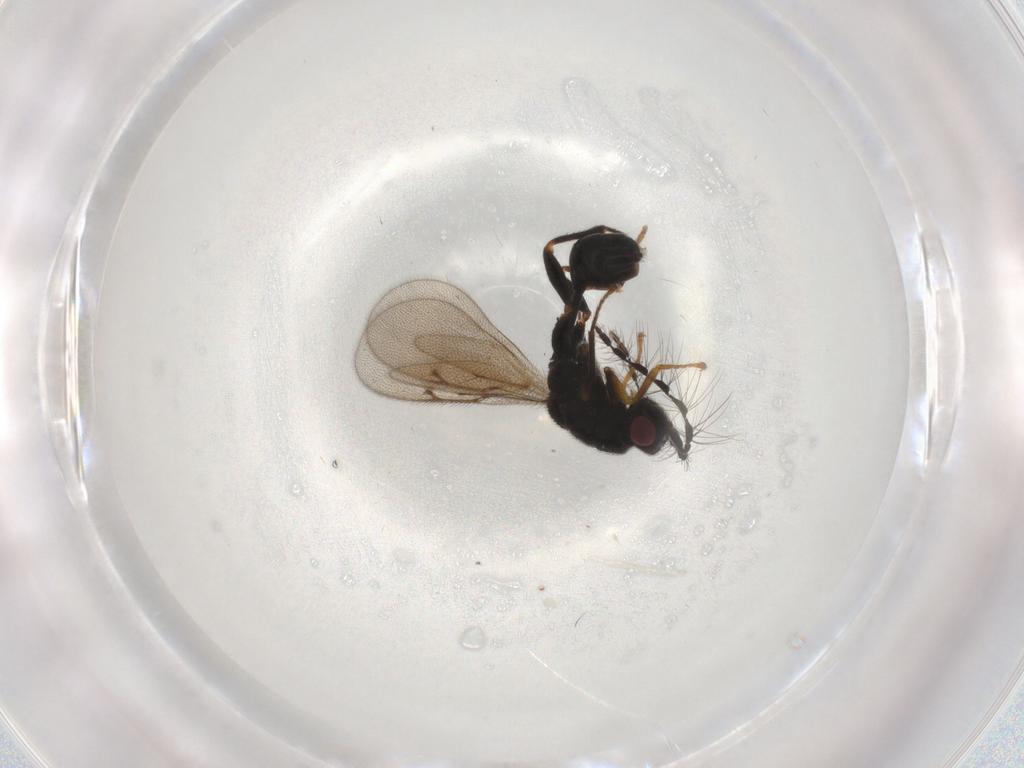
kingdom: Animalia
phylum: Arthropoda
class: Insecta
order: Hymenoptera
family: Eurytomidae
